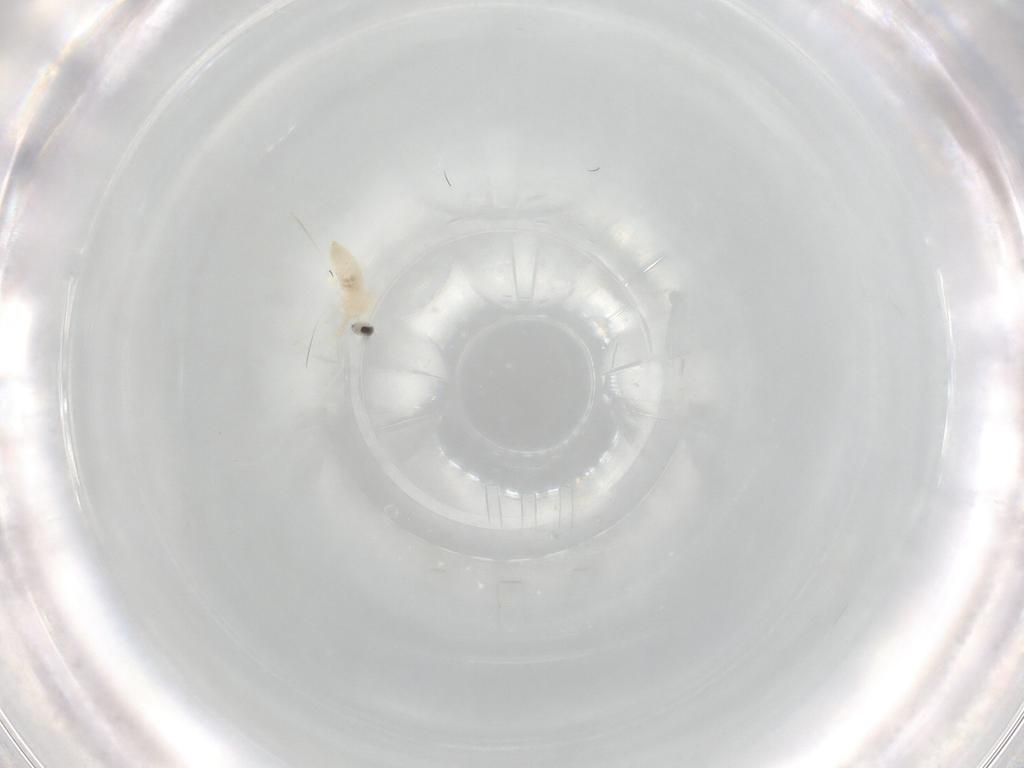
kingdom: Animalia
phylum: Arthropoda
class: Insecta
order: Diptera
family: Cecidomyiidae
